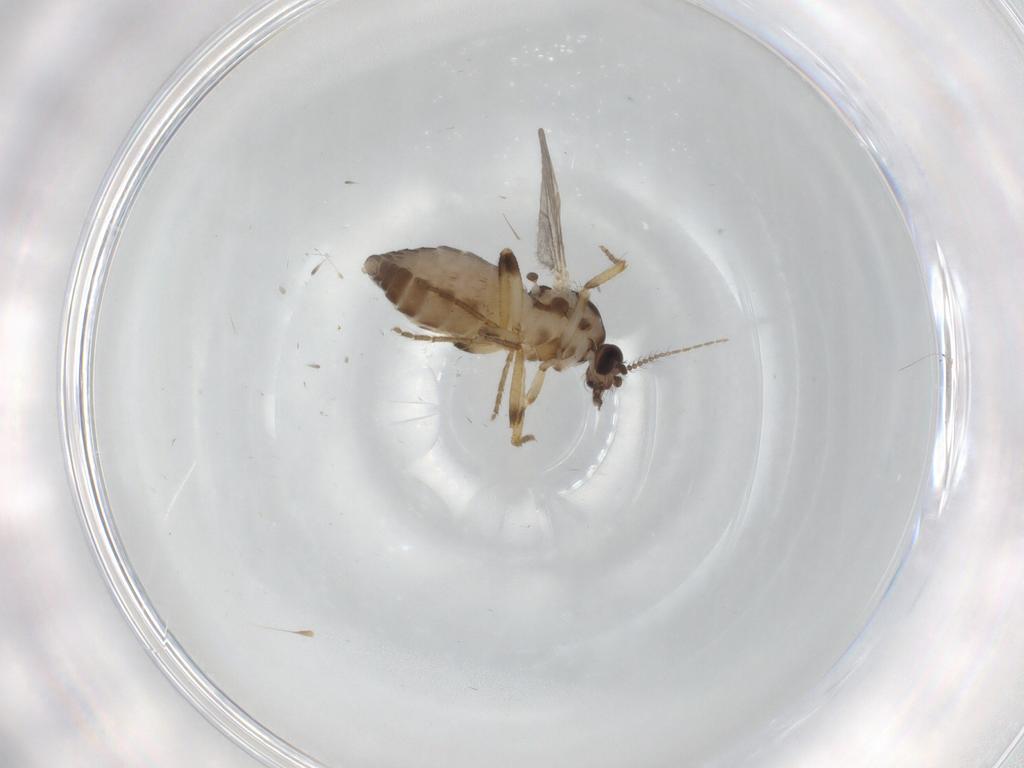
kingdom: Animalia
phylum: Arthropoda
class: Insecta
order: Diptera
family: Ceratopogonidae
